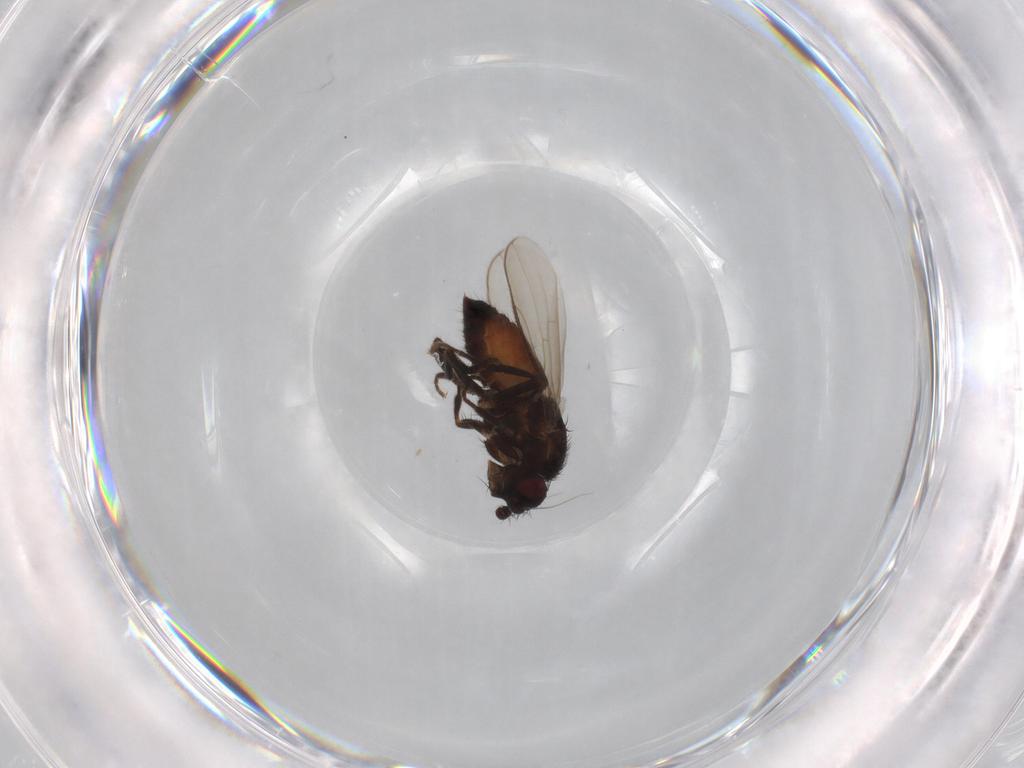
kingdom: Animalia
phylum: Arthropoda
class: Insecta
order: Diptera
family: Sphaeroceridae
